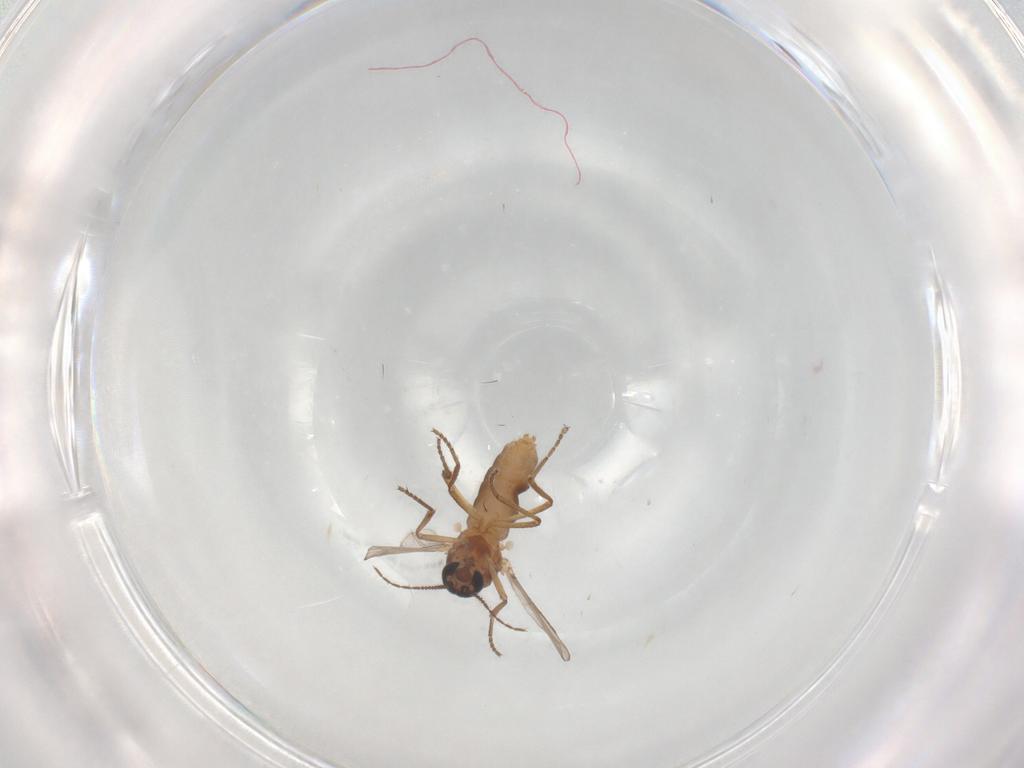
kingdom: Animalia
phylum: Arthropoda
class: Insecta
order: Diptera
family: Ceratopogonidae
